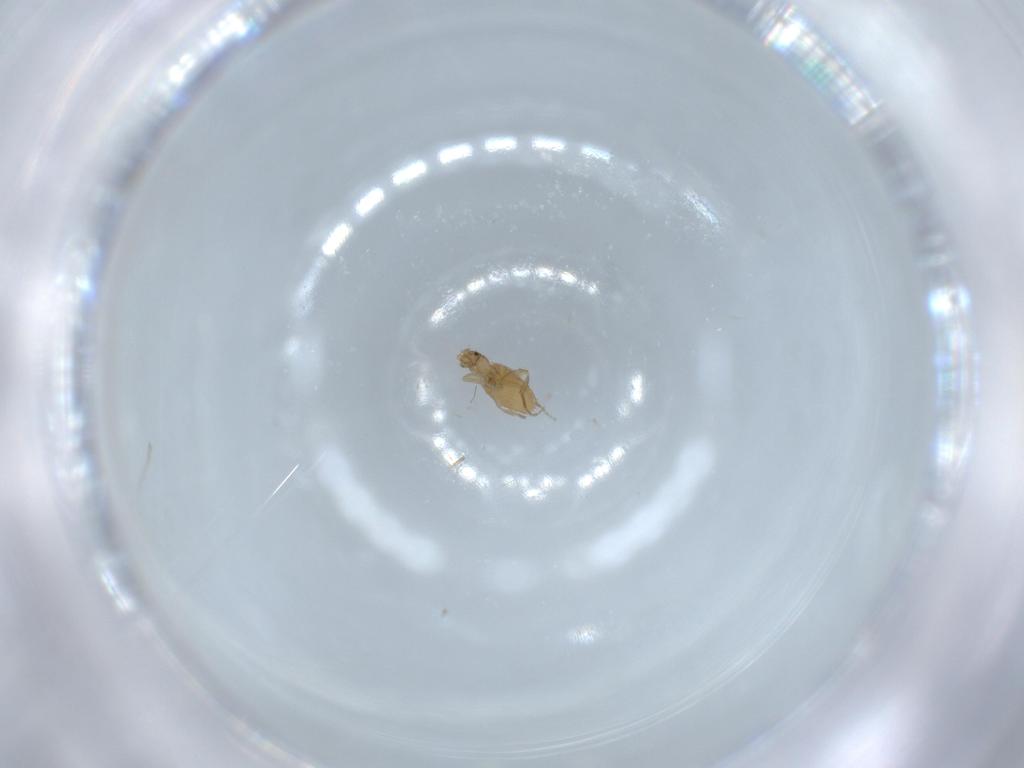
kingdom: Animalia
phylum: Arthropoda
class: Insecta
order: Diptera
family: Phoridae
